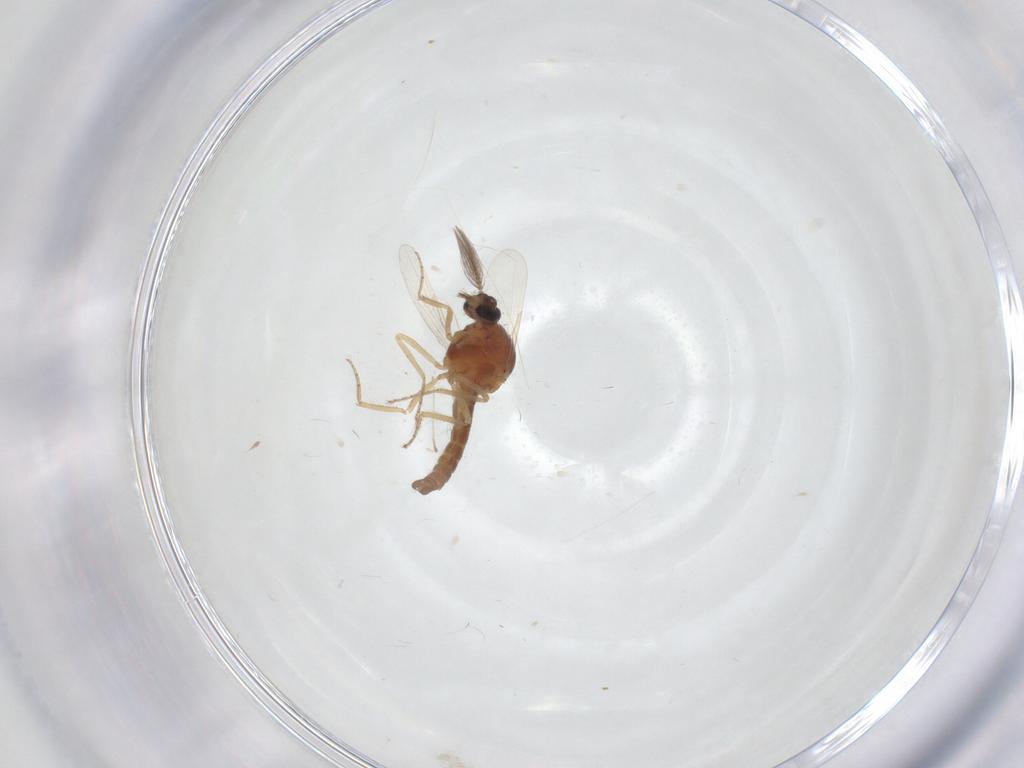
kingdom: Animalia
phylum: Arthropoda
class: Insecta
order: Diptera
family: Ceratopogonidae
